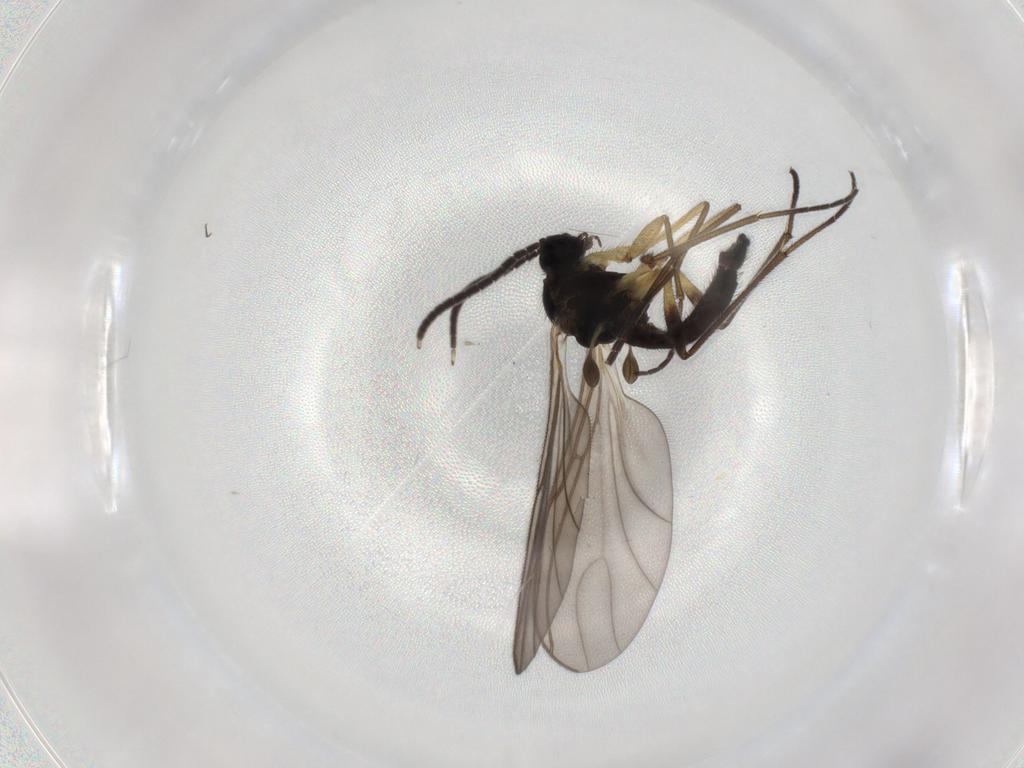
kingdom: Animalia
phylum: Arthropoda
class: Insecta
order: Diptera
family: Sciaridae
